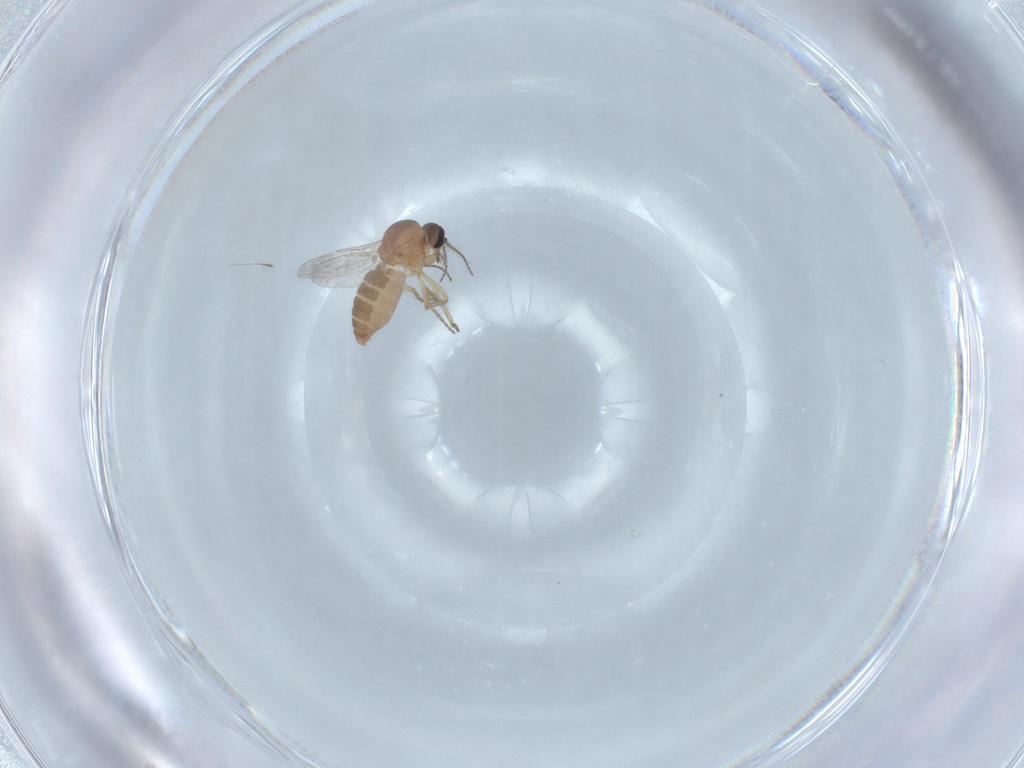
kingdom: Animalia
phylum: Arthropoda
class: Insecta
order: Diptera
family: Ceratopogonidae
